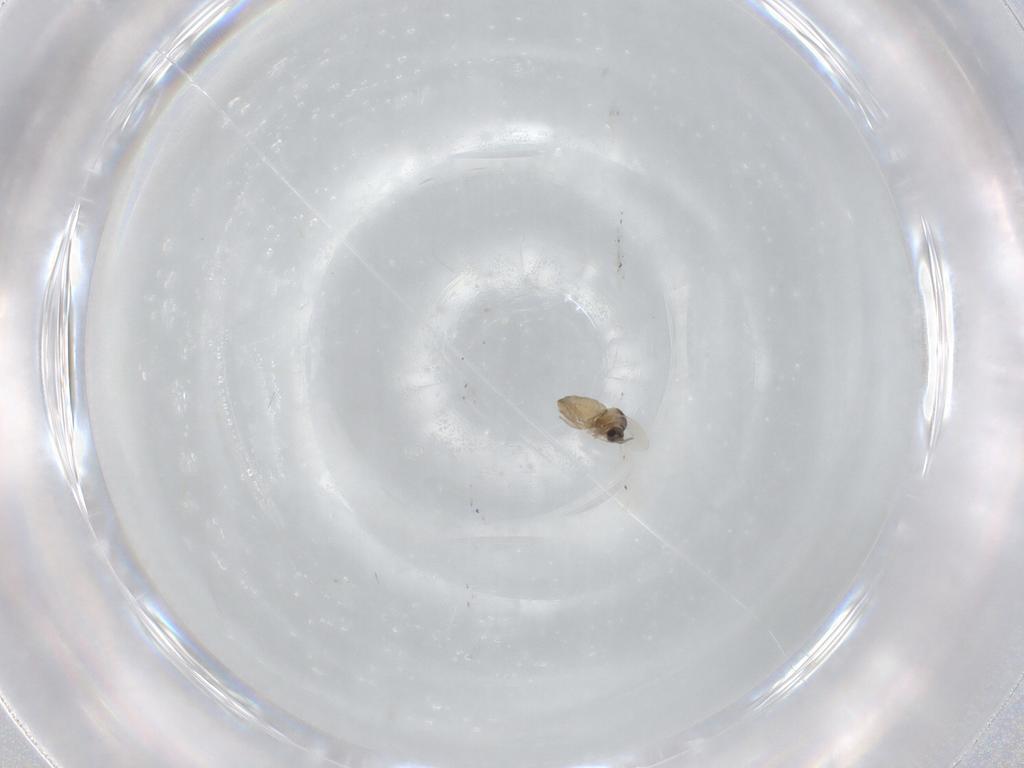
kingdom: Animalia
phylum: Arthropoda
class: Insecta
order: Diptera
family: Cecidomyiidae
